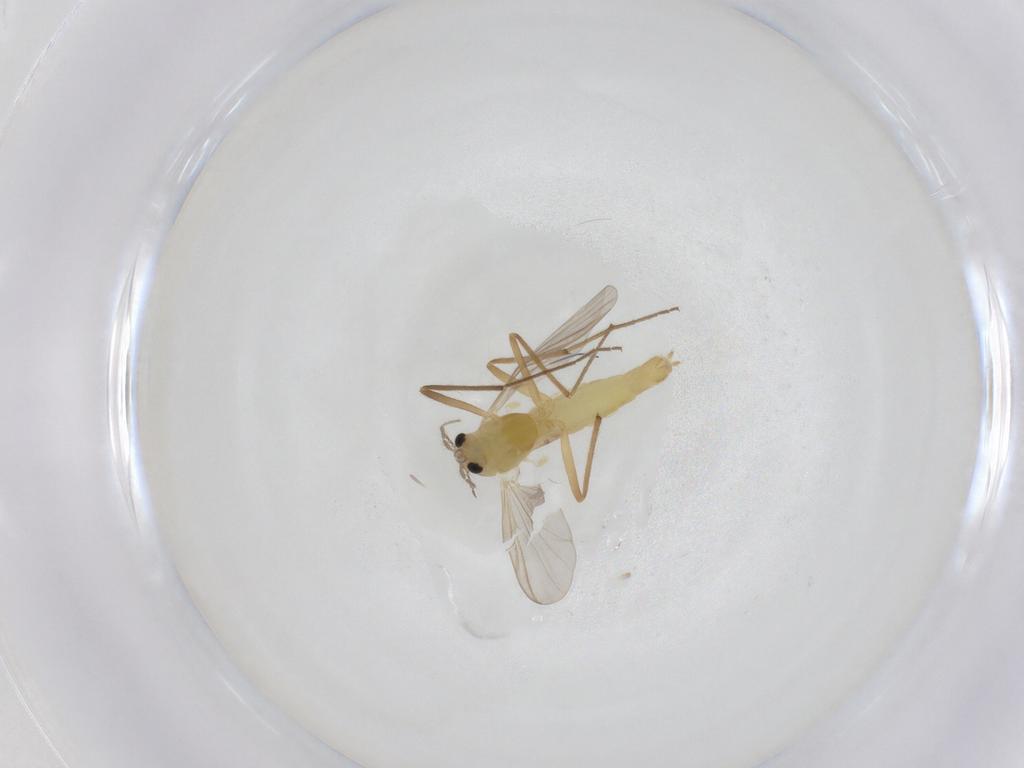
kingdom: Animalia
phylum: Arthropoda
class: Insecta
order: Diptera
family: Chironomidae
